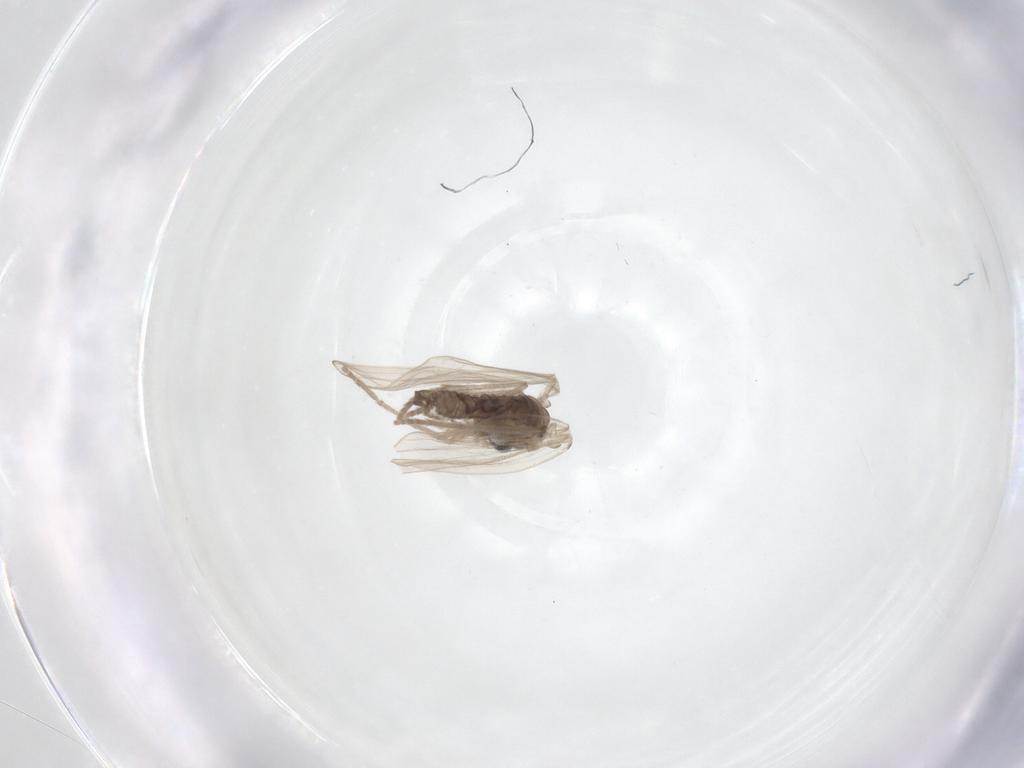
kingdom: Animalia
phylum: Arthropoda
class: Insecta
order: Diptera
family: Psychodidae
